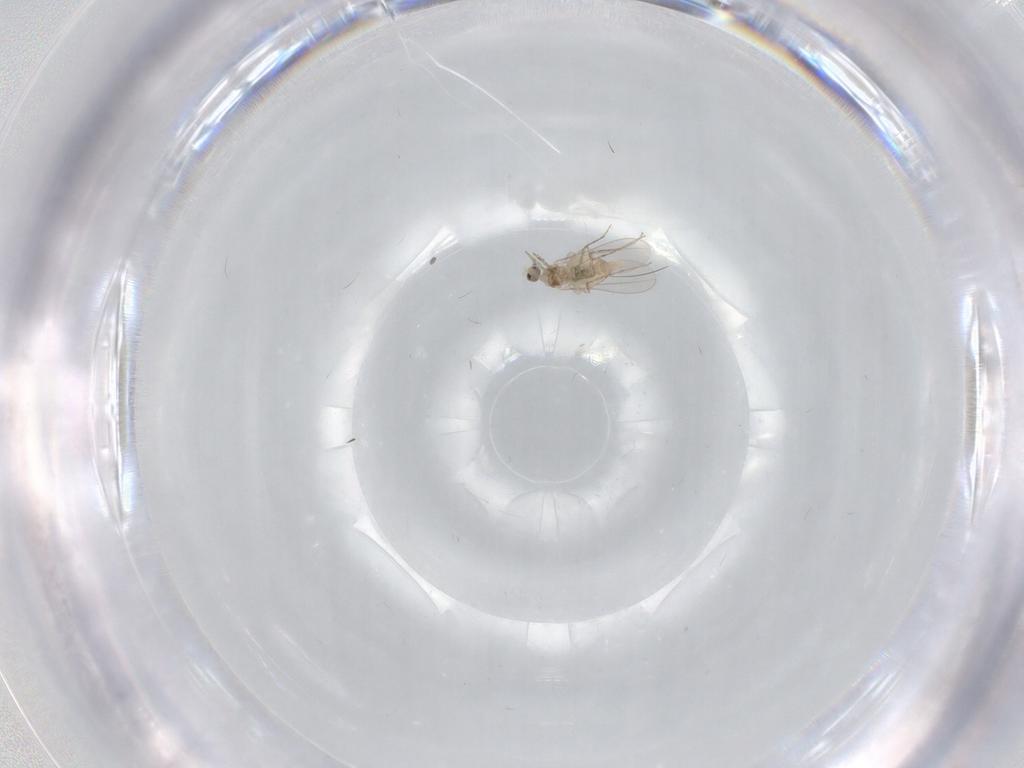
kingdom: Animalia
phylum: Arthropoda
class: Insecta
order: Diptera
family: Cecidomyiidae
